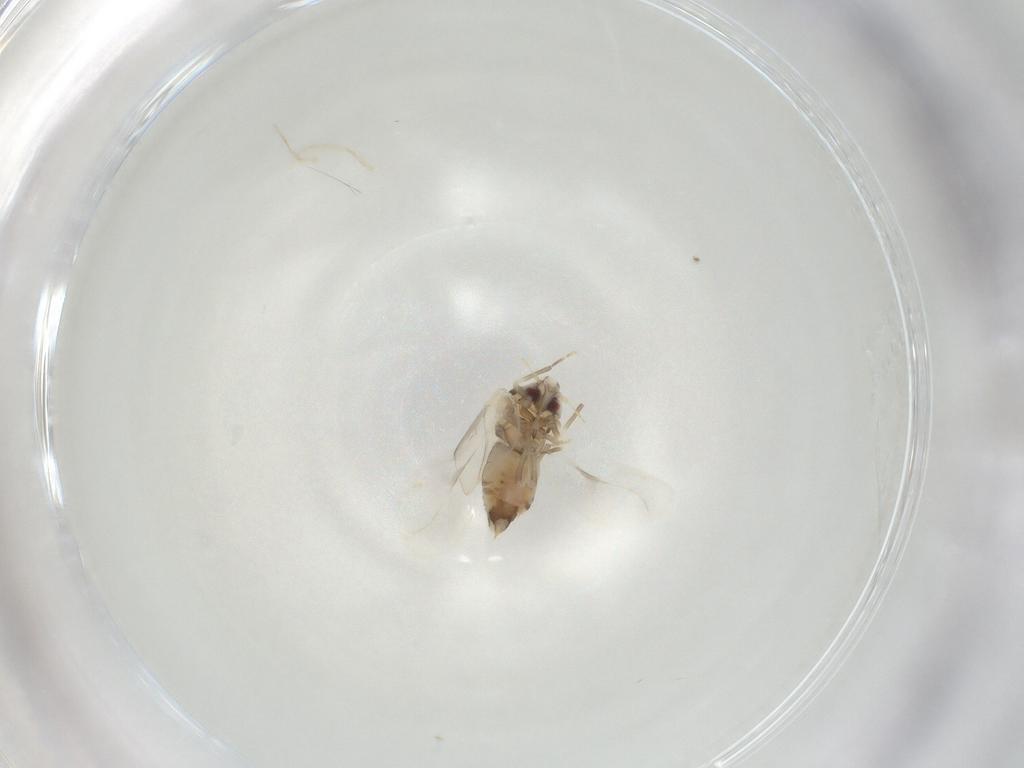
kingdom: Animalia
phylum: Arthropoda
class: Insecta
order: Hemiptera
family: Aleyrodidae
